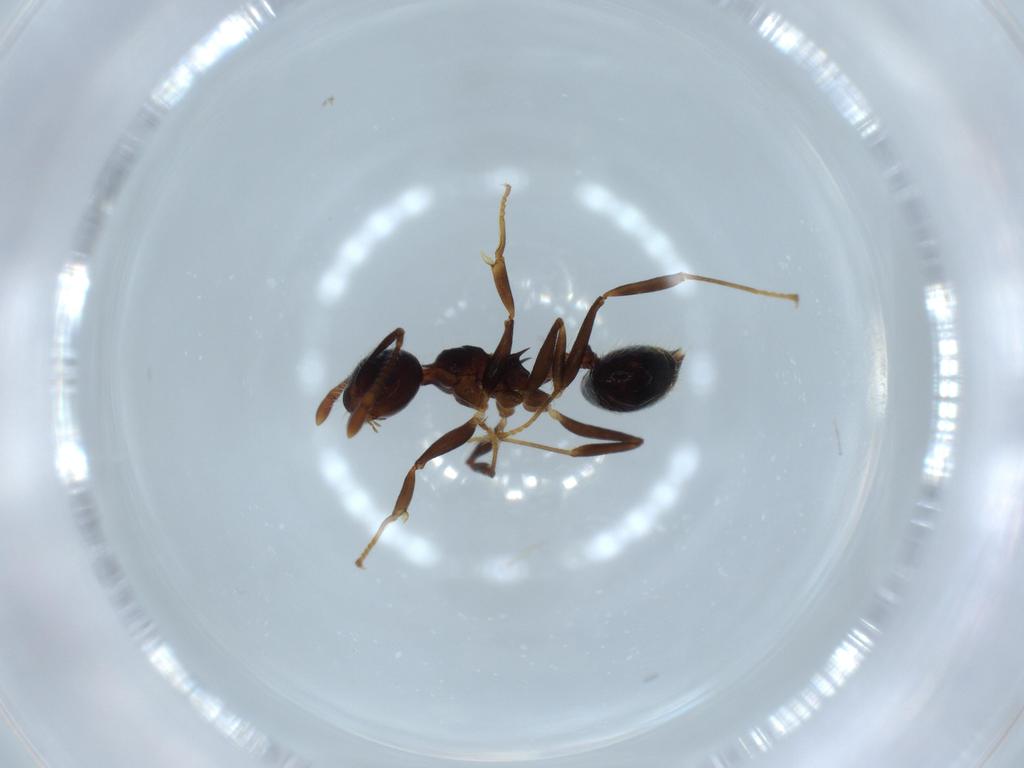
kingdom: Animalia
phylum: Arthropoda
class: Insecta
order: Hymenoptera
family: Formicidae
